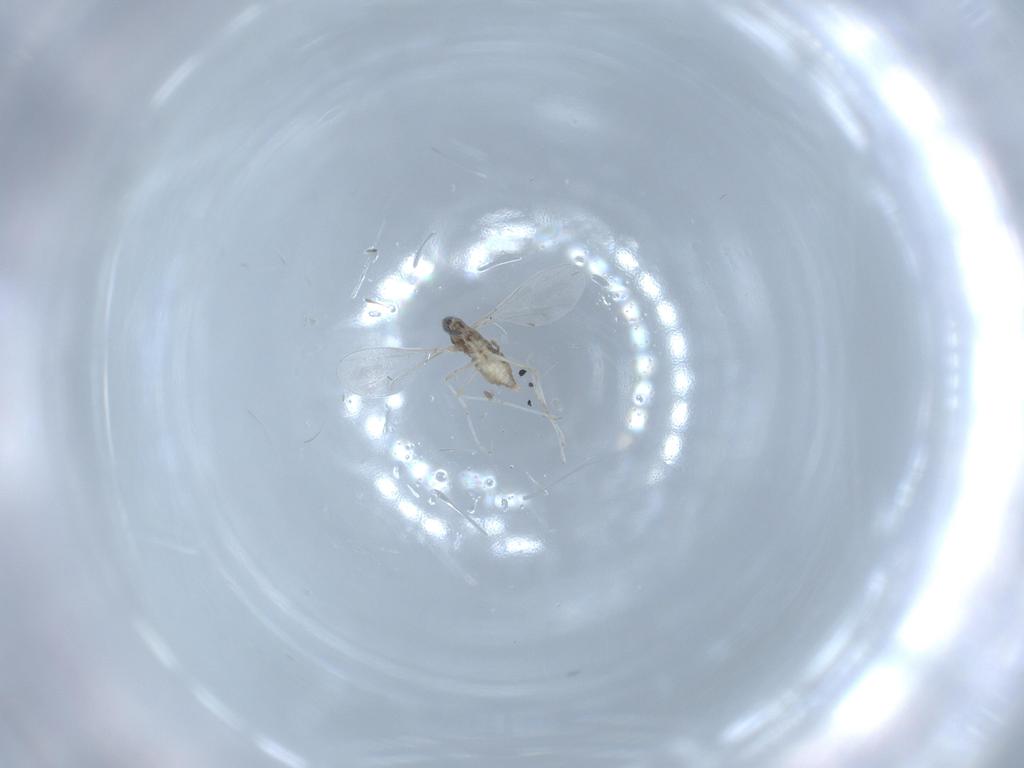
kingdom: Animalia
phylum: Arthropoda
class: Insecta
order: Diptera
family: Cecidomyiidae
